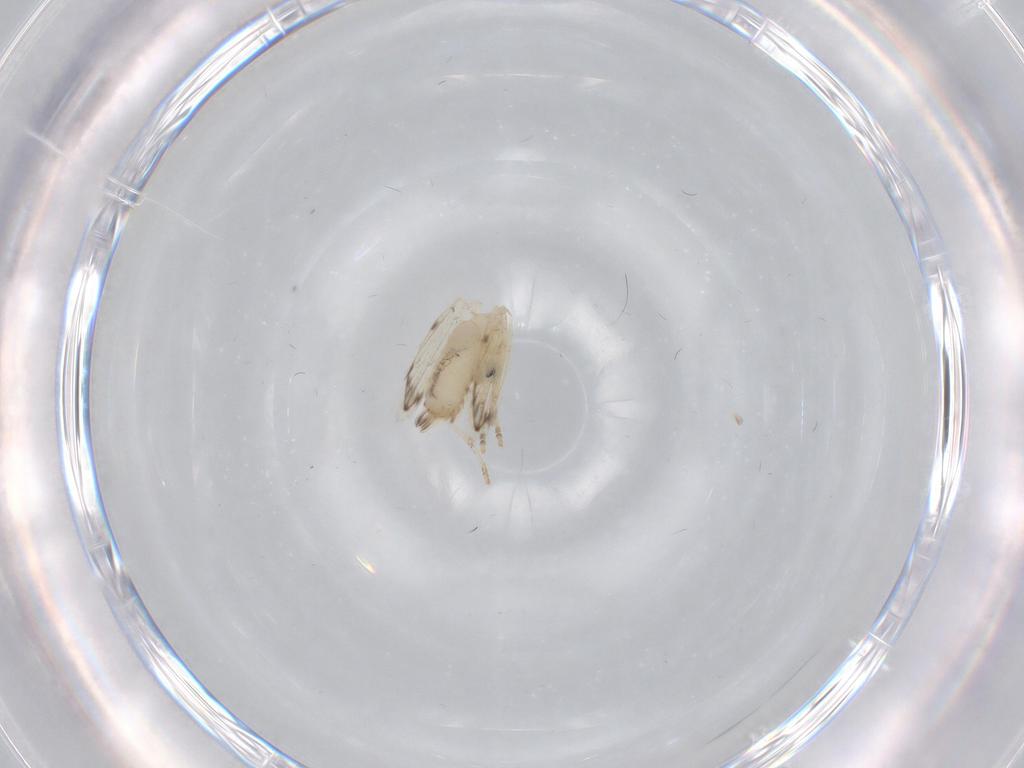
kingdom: Animalia
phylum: Arthropoda
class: Insecta
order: Diptera
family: Psychodidae
